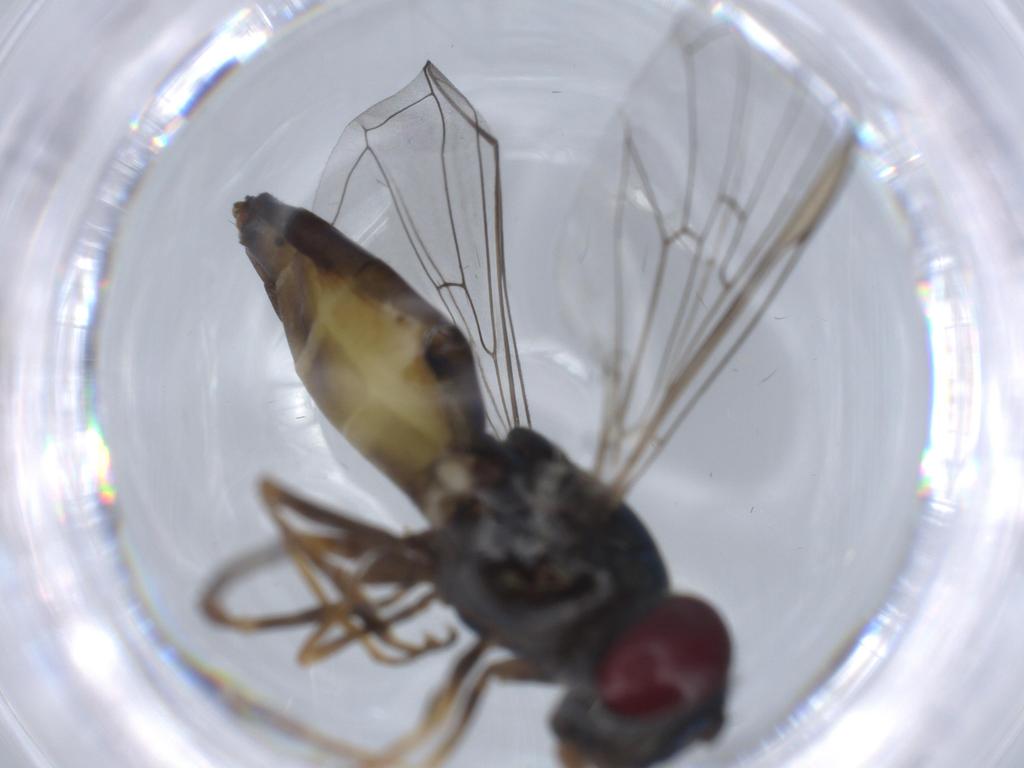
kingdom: Animalia
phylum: Arthropoda
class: Insecta
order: Diptera
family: Syrphidae
